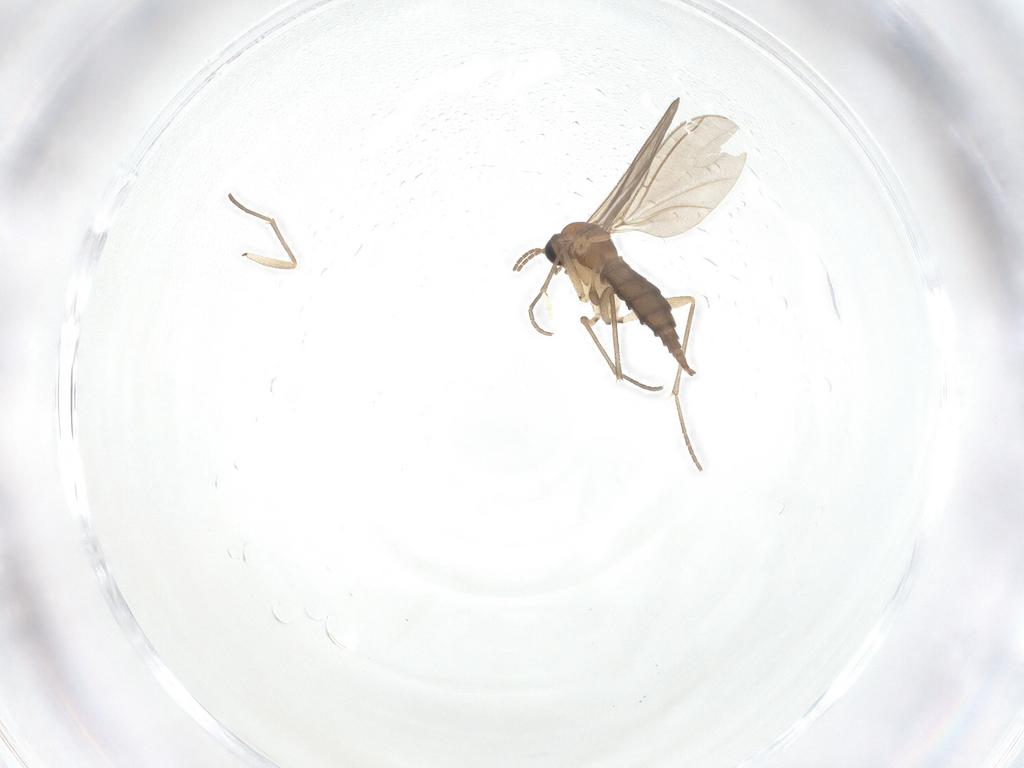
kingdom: Animalia
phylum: Arthropoda
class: Insecta
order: Diptera
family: Sciaridae
